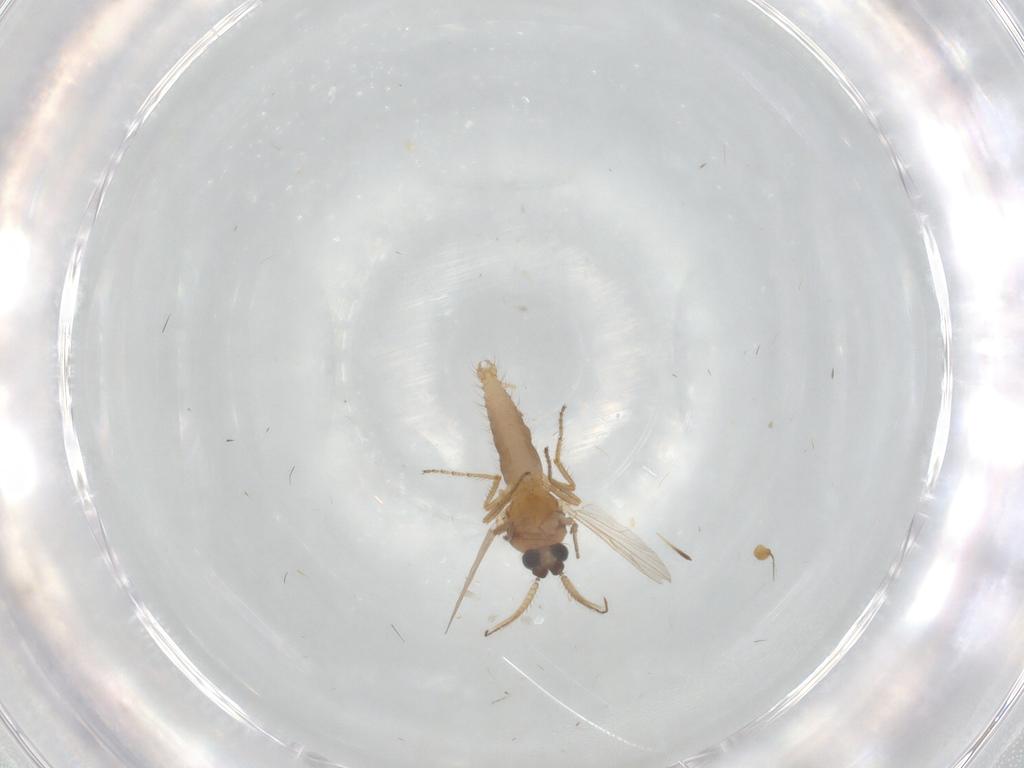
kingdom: Animalia
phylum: Arthropoda
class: Insecta
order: Diptera
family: Ceratopogonidae
